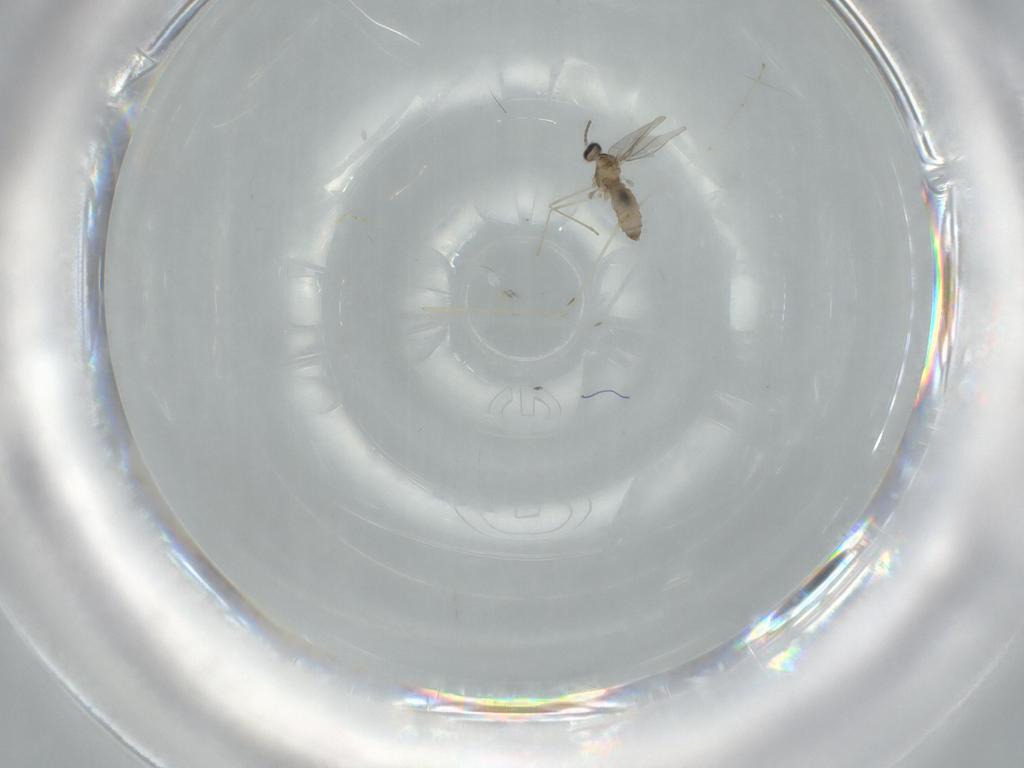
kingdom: Animalia
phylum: Arthropoda
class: Insecta
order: Diptera
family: Cecidomyiidae
